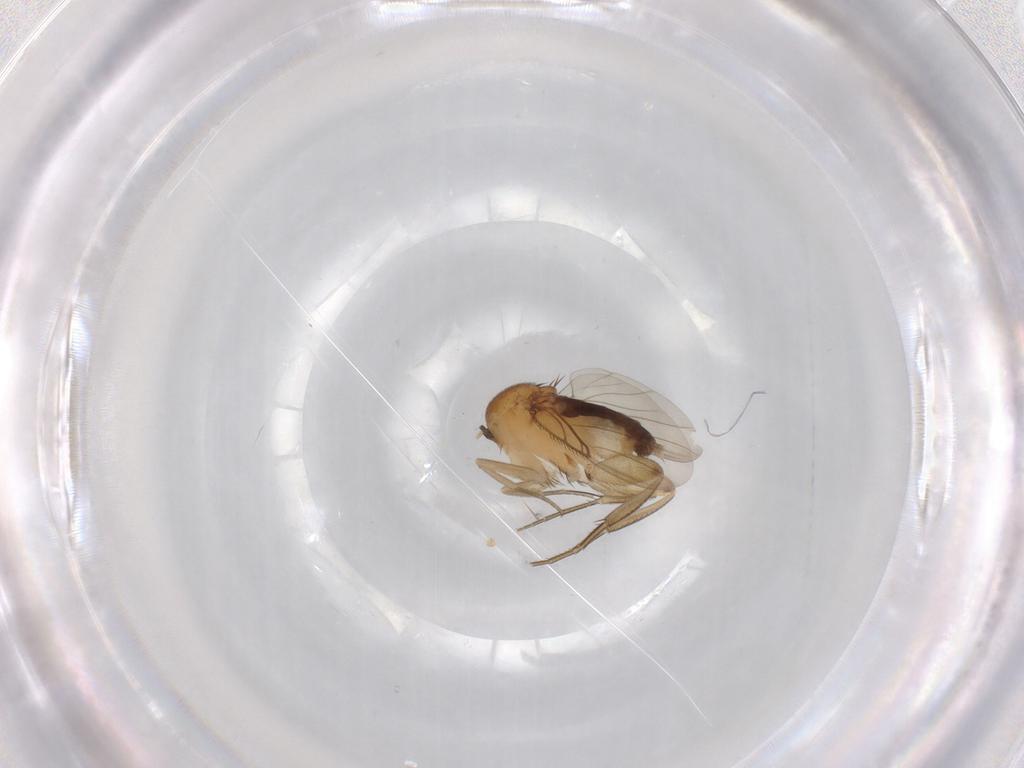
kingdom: Animalia
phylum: Arthropoda
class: Insecta
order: Diptera
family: Phoridae
